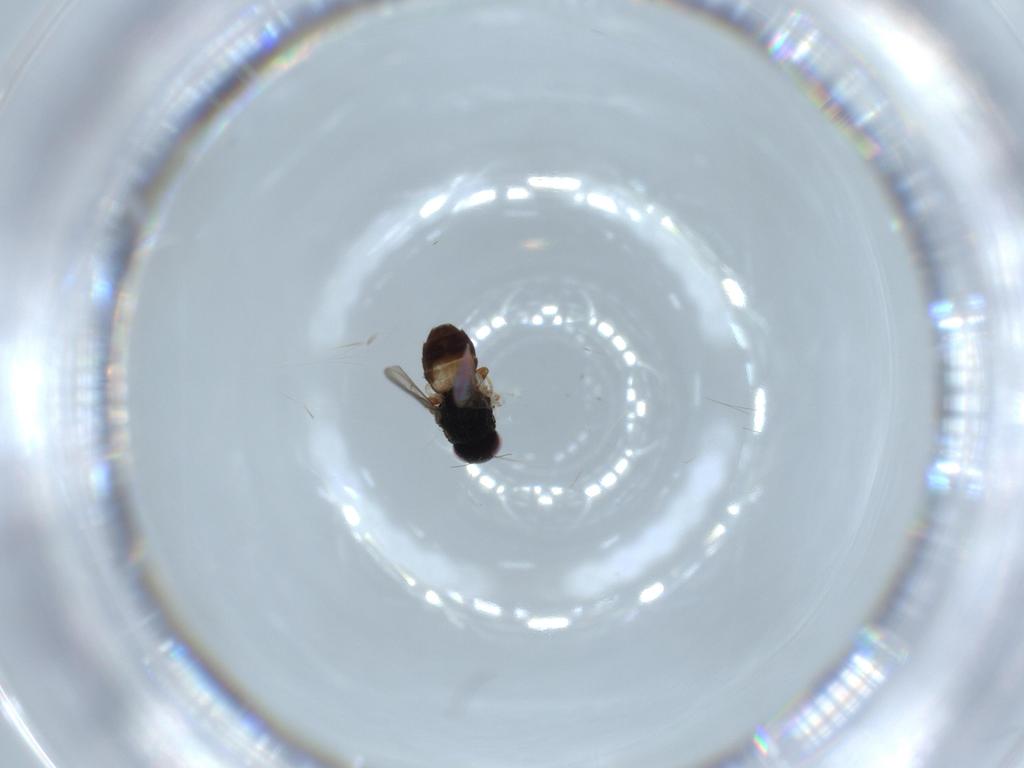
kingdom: Animalia
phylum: Arthropoda
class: Insecta
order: Diptera
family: Chloropidae
